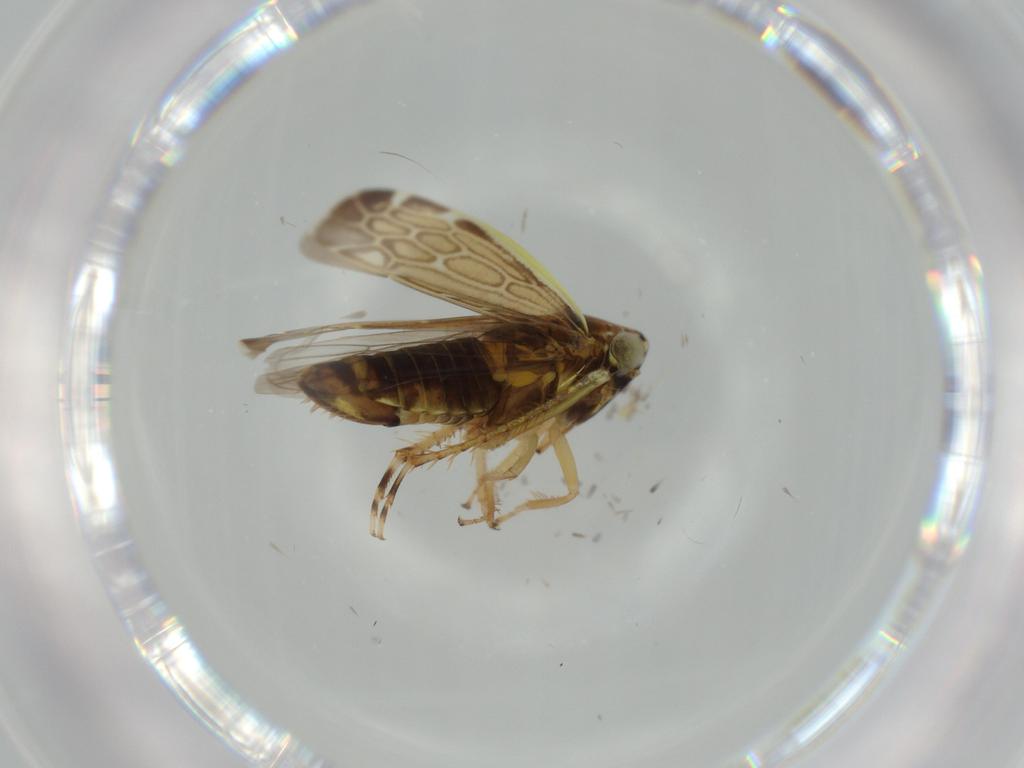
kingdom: Animalia
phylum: Arthropoda
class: Insecta
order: Hemiptera
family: Cicadellidae
